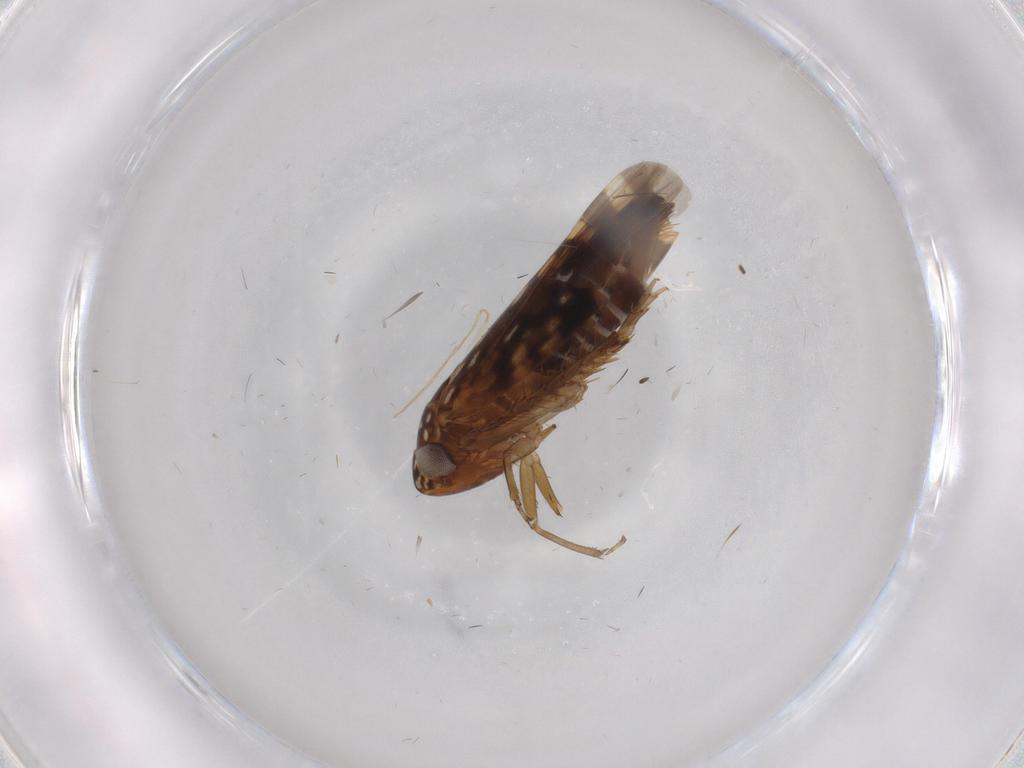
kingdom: Animalia
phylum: Arthropoda
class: Insecta
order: Hemiptera
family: Cicadellidae
